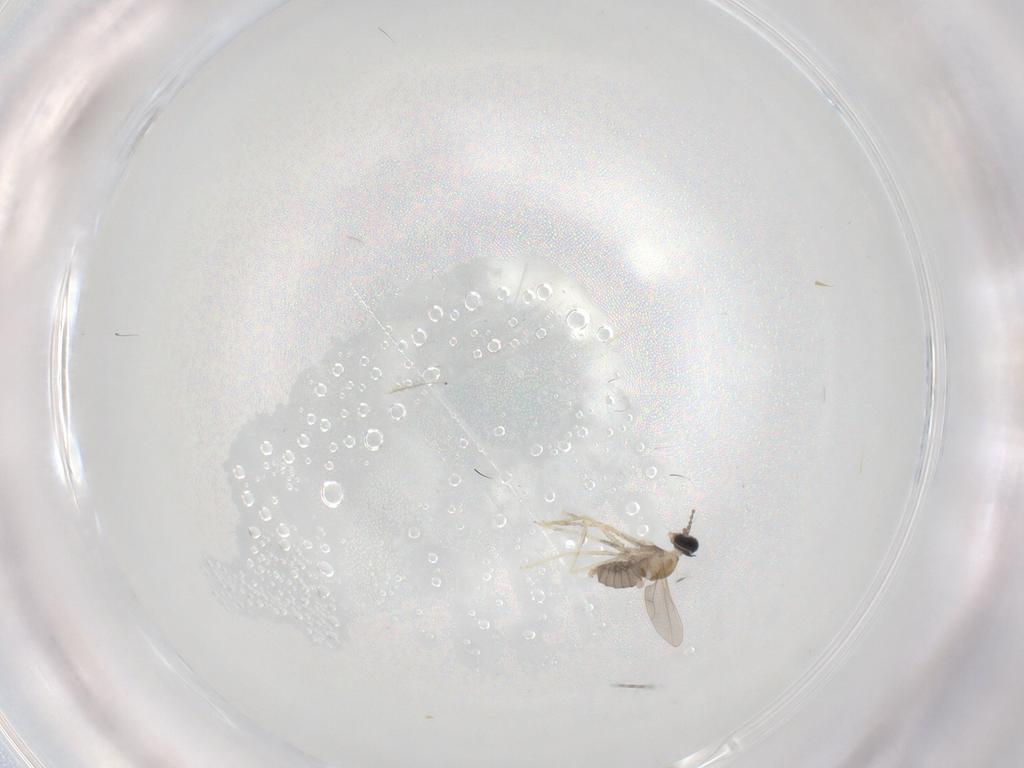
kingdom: Animalia
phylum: Arthropoda
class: Insecta
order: Diptera
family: Cecidomyiidae
